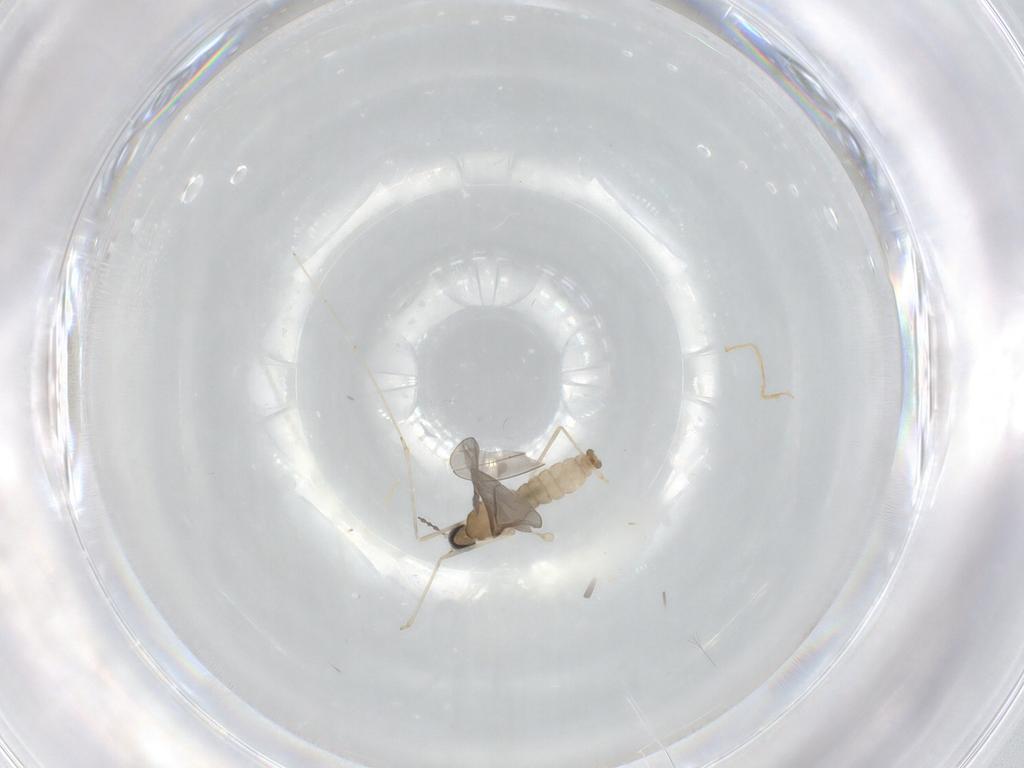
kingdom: Animalia
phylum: Arthropoda
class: Insecta
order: Diptera
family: Cecidomyiidae
